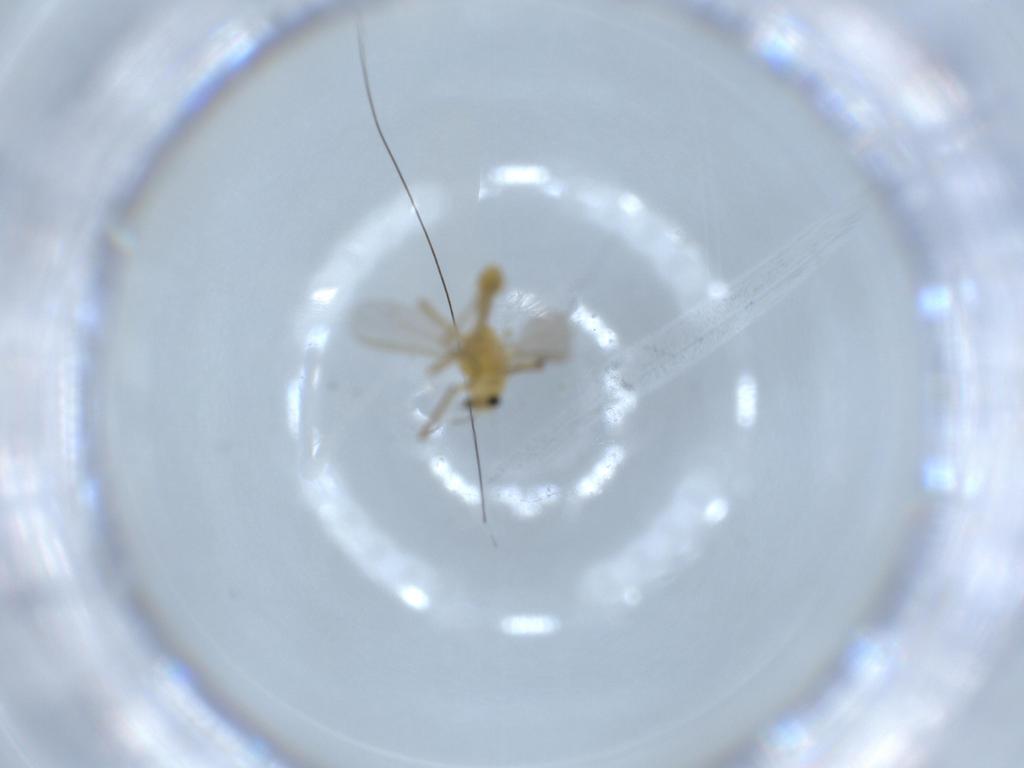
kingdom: Animalia
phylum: Arthropoda
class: Insecta
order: Diptera
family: Chironomidae
